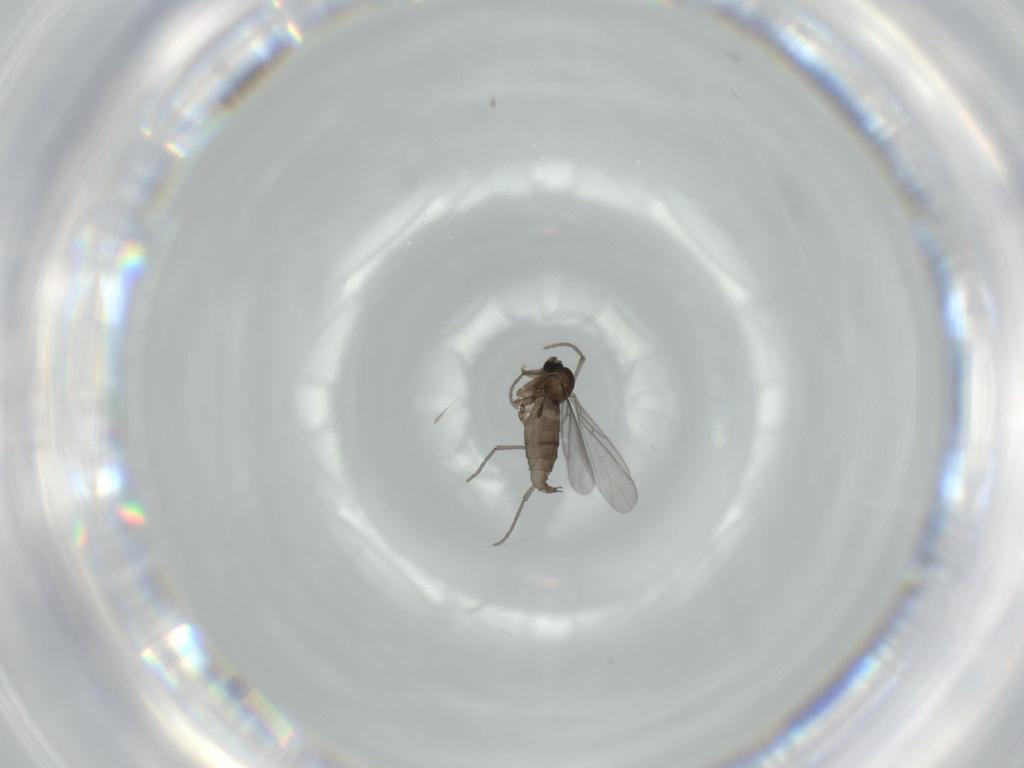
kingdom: Animalia
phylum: Arthropoda
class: Insecta
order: Diptera
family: Sciaridae
